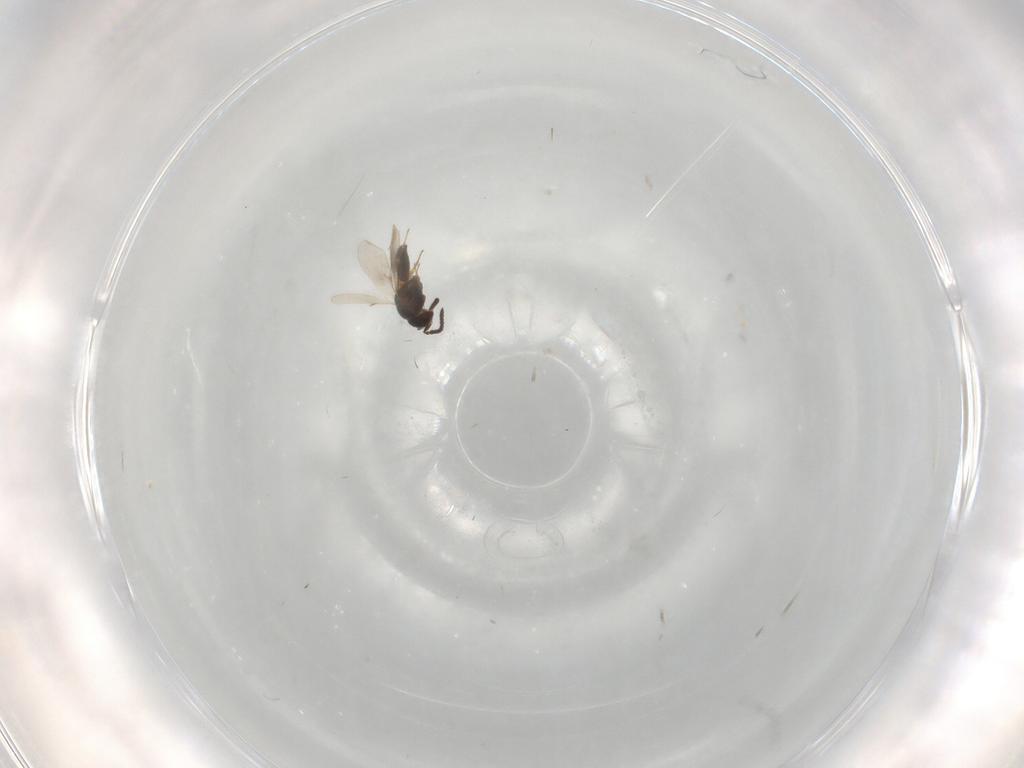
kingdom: Animalia
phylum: Arthropoda
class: Insecta
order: Hymenoptera
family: Scelionidae
